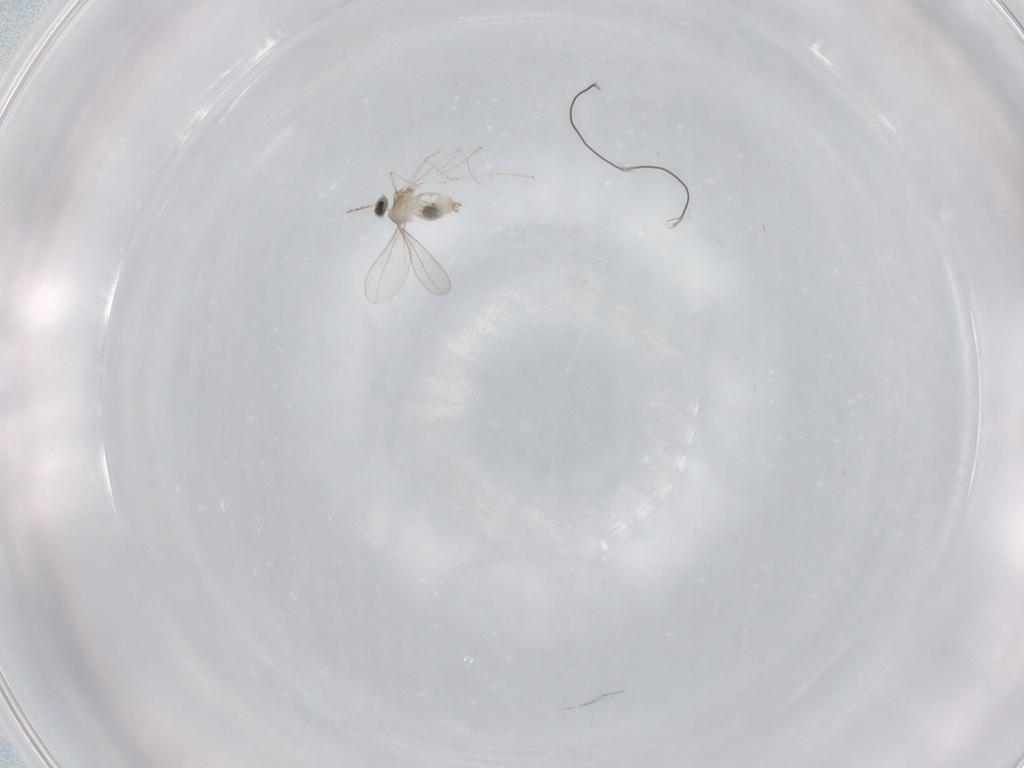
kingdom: Animalia
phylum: Arthropoda
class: Insecta
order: Diptera
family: Cecidomyiidae
